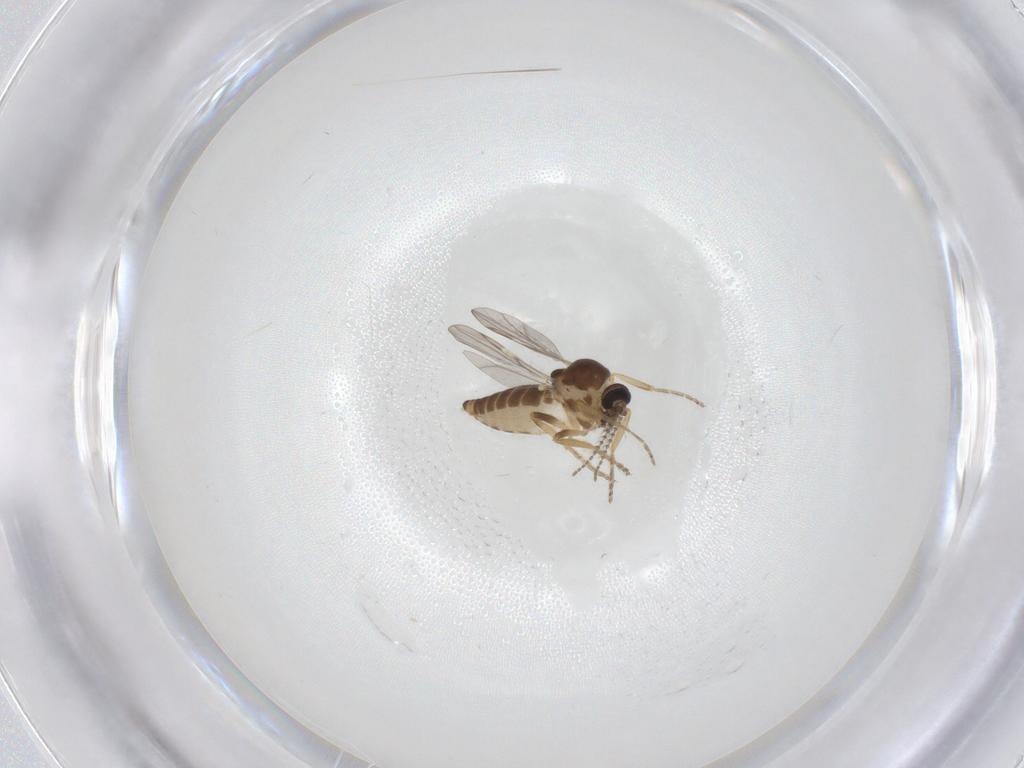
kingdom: Animalia
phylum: Arthropoda
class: Insecta
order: Diptera
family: Ceratopogonidae
